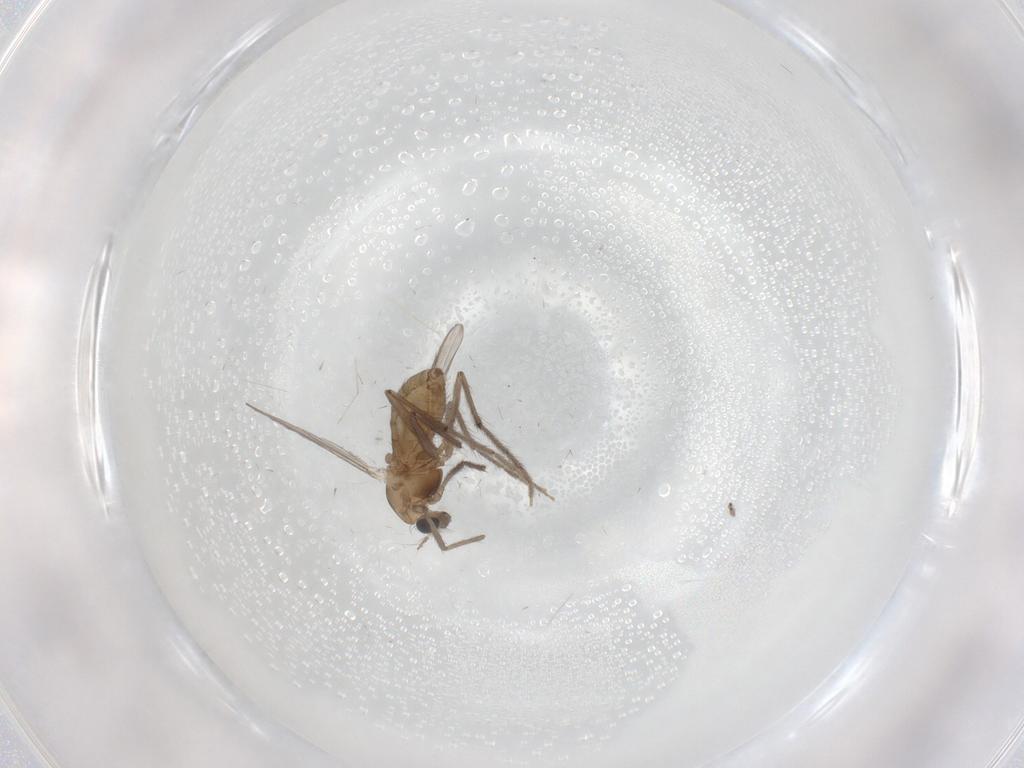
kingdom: Animalia
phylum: Arthropoda
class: Insecta
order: Diptera
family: Chironomidae
